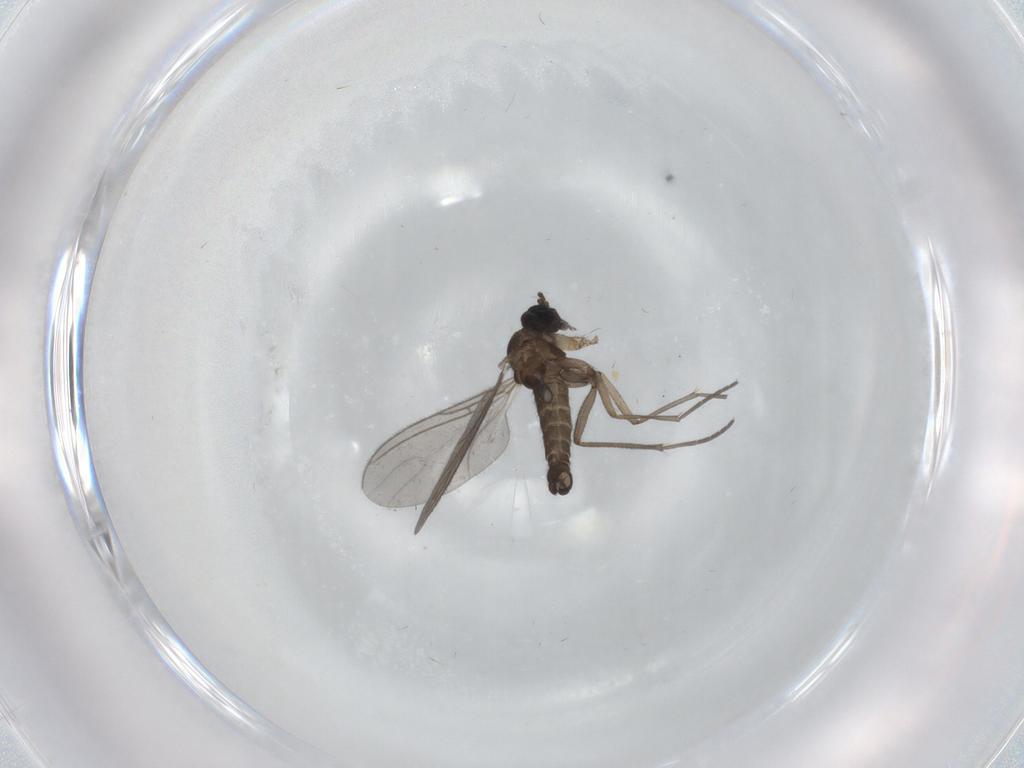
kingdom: Animalia
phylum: Arthropoda
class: Insecta
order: Diptera
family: Sciaridae
